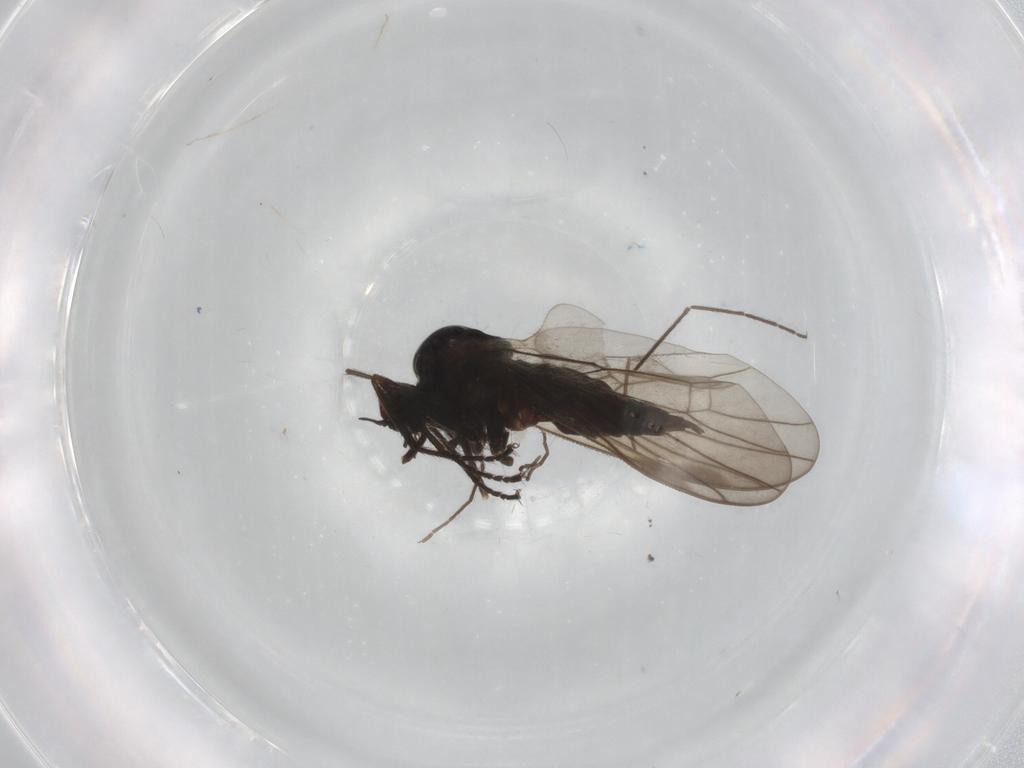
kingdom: Animalia
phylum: Arthropoda
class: Insecta
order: Diptera
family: Hybotidae
